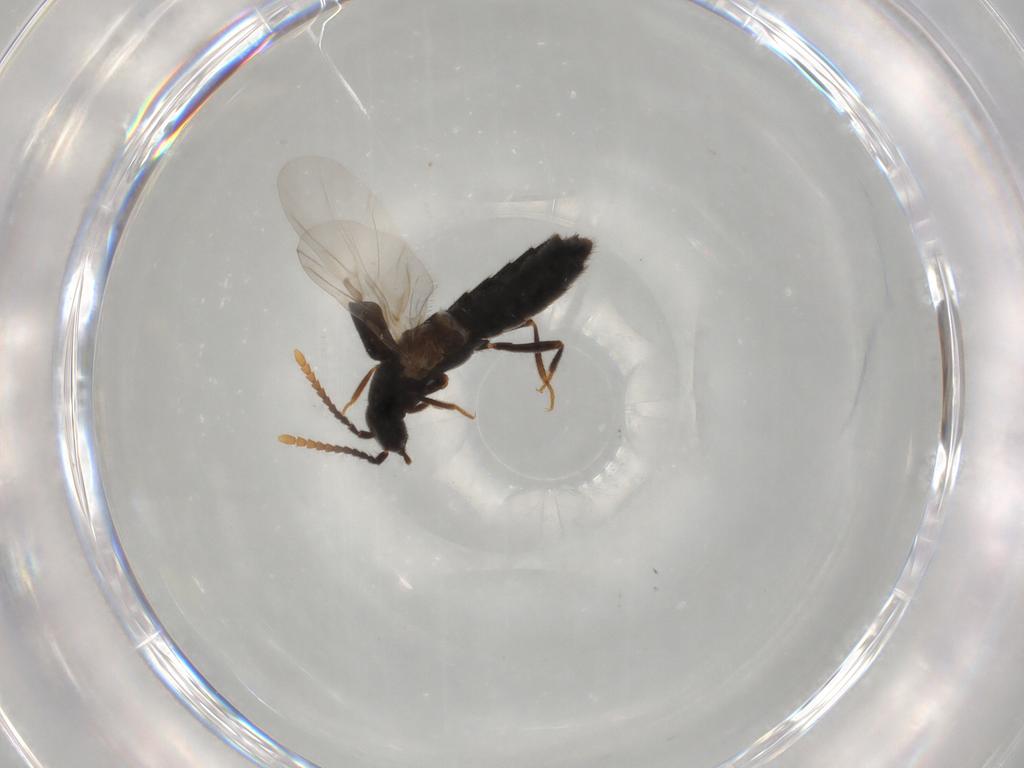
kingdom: Animalia
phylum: Arthropoda
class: Insecta
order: Coleoptera
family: Staphylinidae
